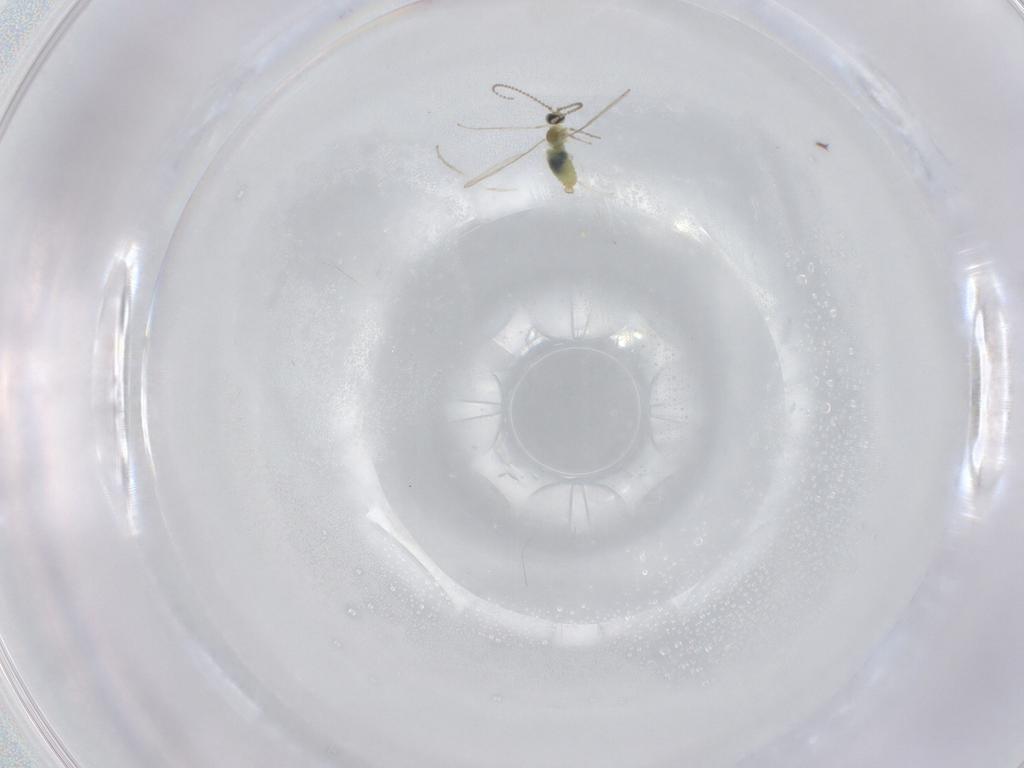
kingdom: Animalia
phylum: Arthropoda
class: Insecta
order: Diptera
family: Cecidomyiidae
